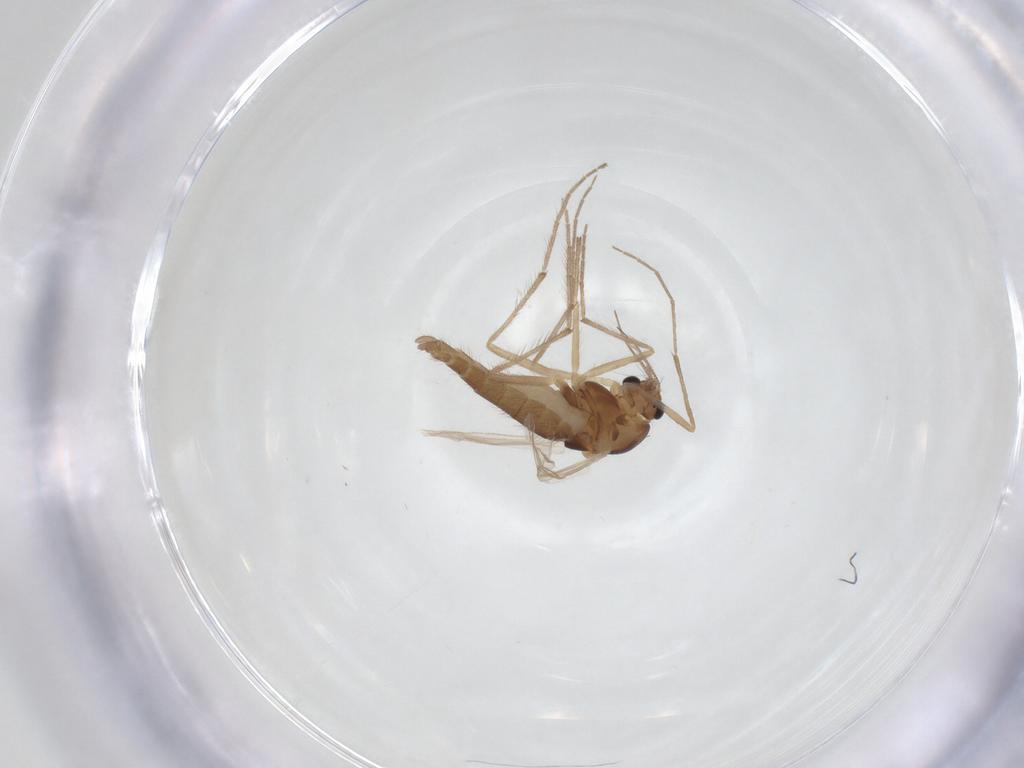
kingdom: Animalia
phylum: Arthropoda
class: Insecta
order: Diptera
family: Chironomidae
